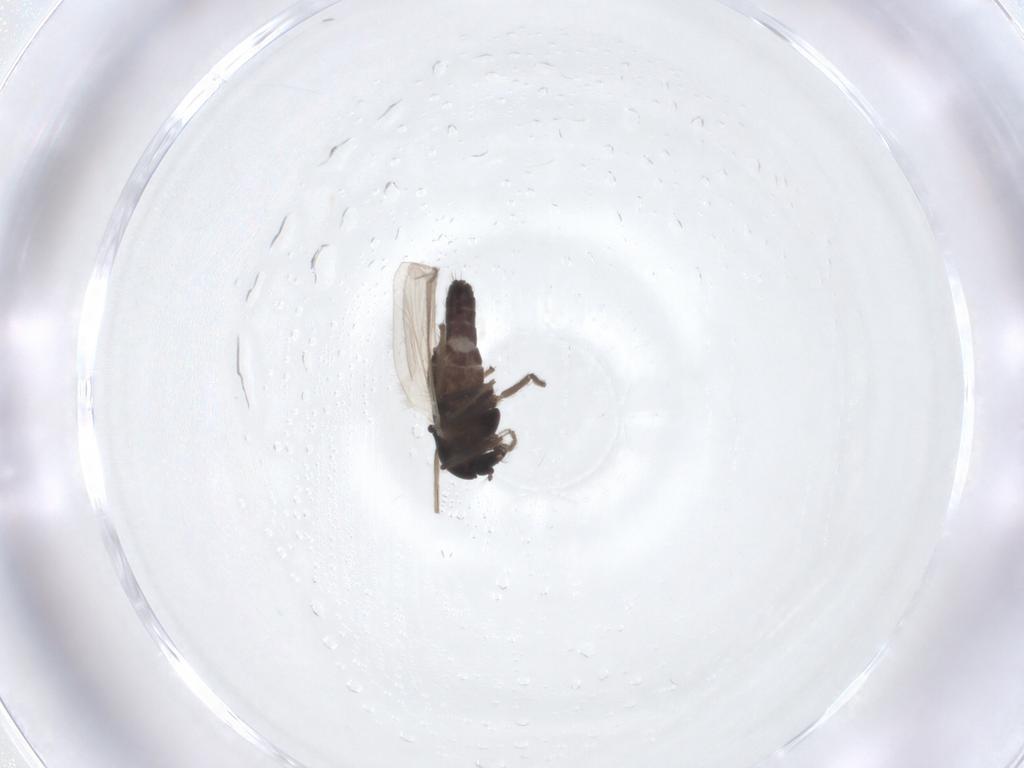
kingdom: Animalia
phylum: Arthropoda
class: Insecta
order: Diptera
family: Chironomidae
